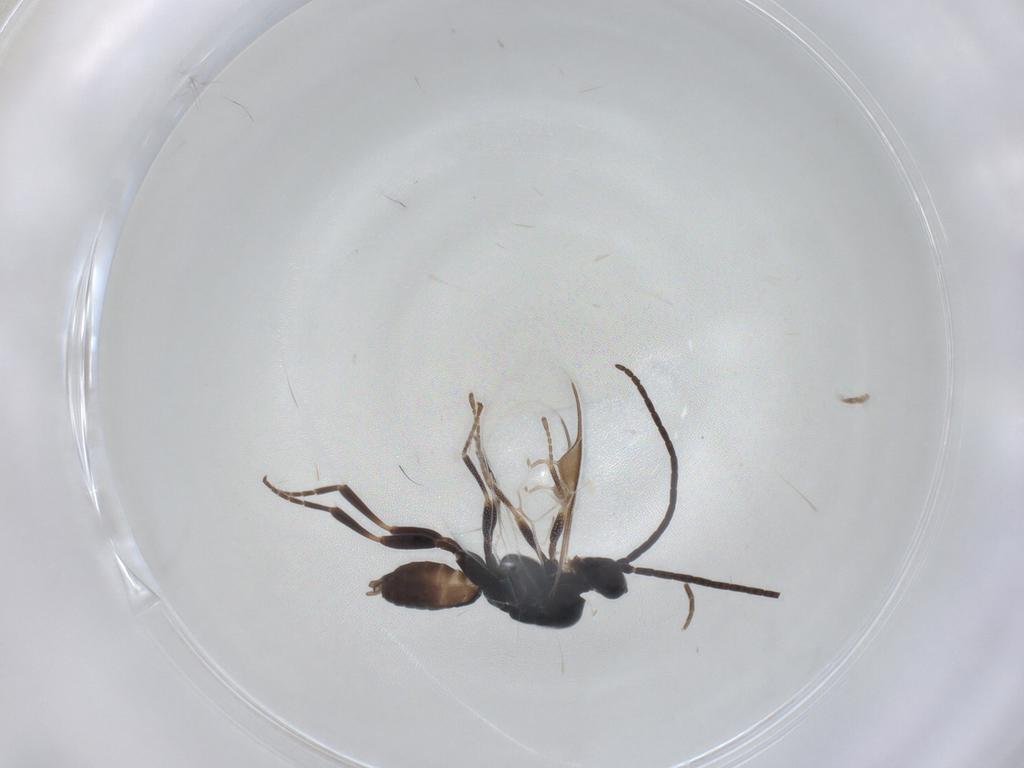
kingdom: Animalia
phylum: Arthropoda
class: Insecta
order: Hymenoptera
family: Braconidae
